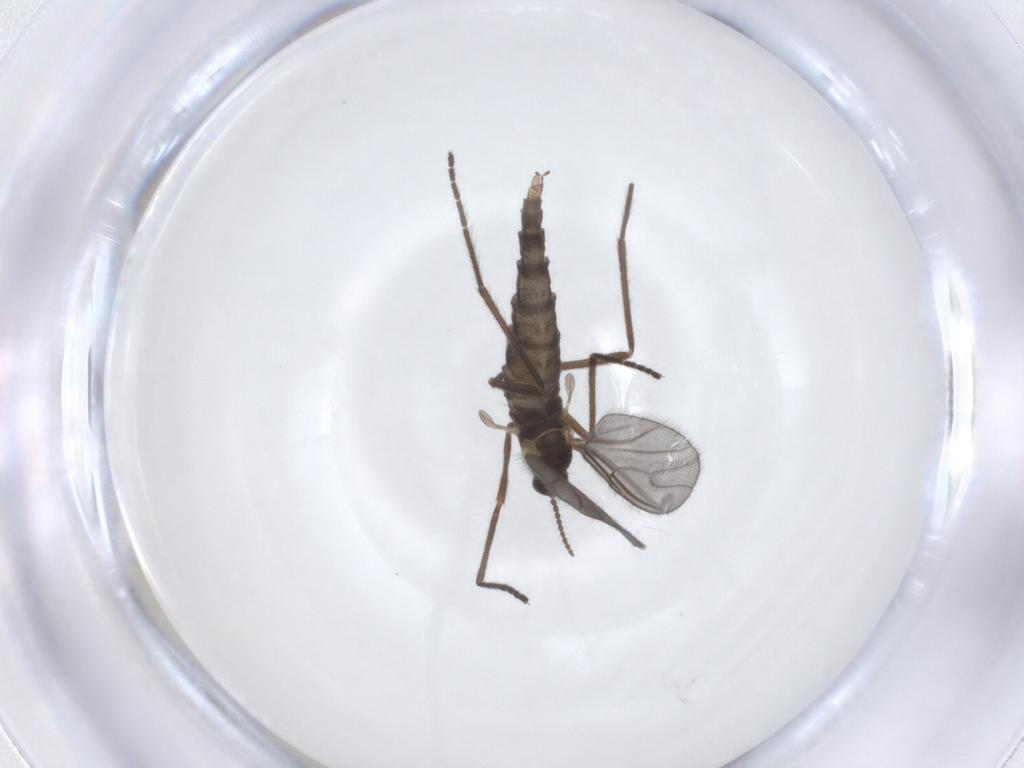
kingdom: Animalia
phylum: Arthropoda
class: Insecta
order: Diptera
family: Cecidomyiidae
